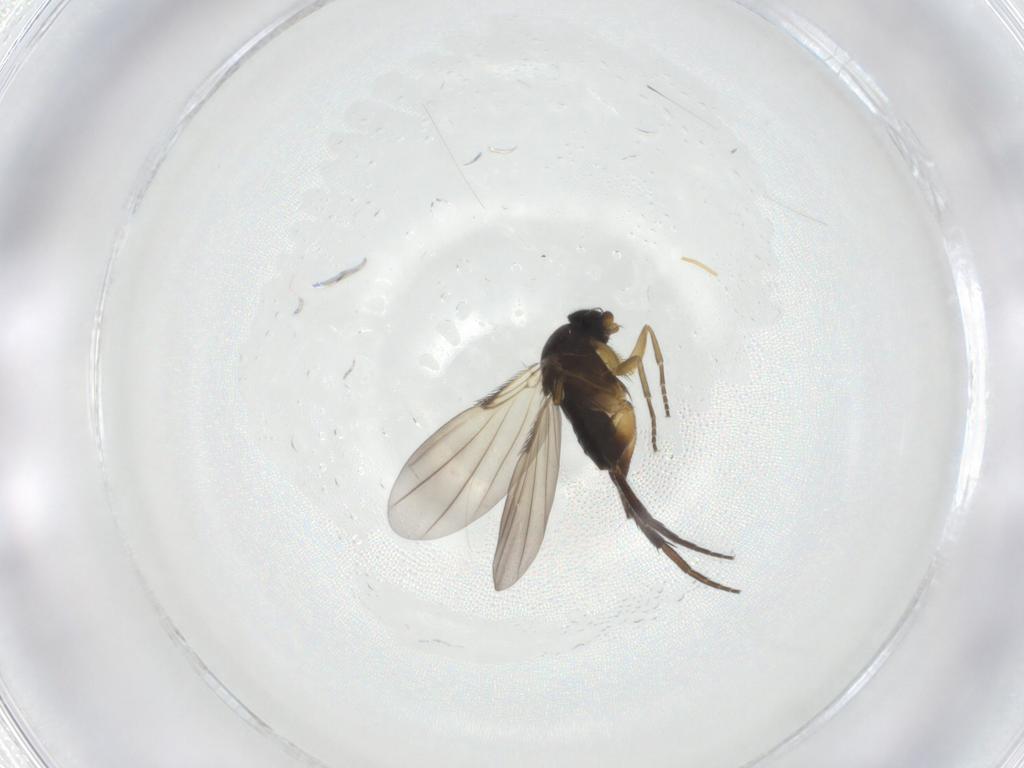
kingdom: Animalia
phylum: Arthropoda
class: Insecta
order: Diptera
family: Phoridae
